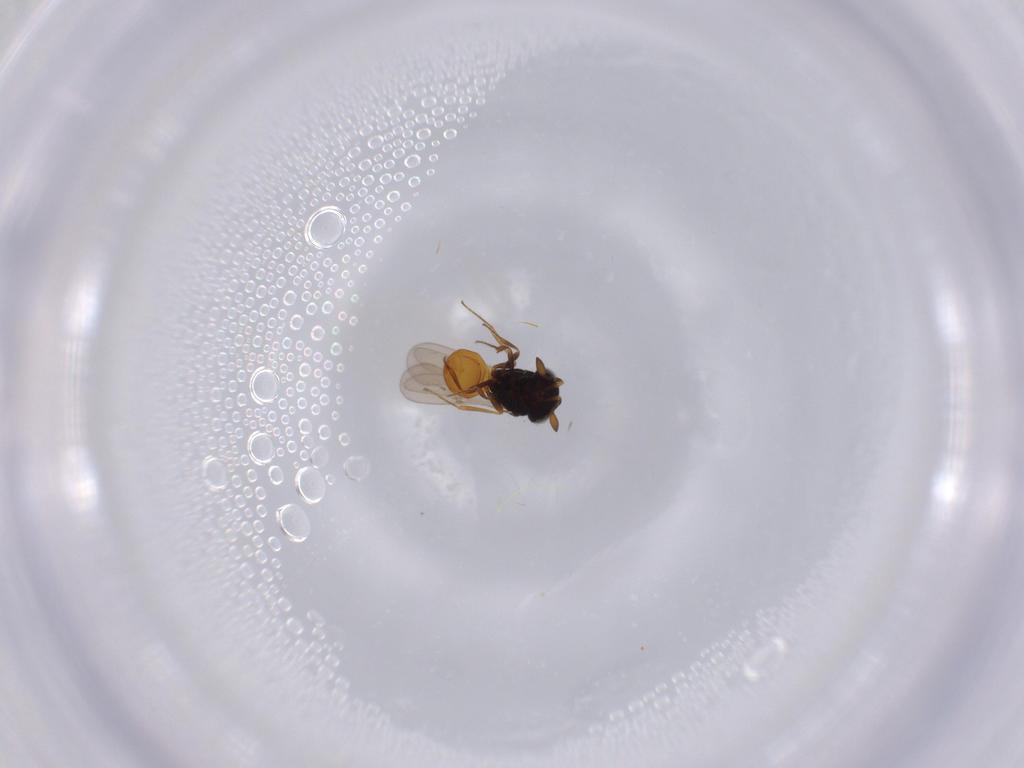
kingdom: Animalia
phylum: Arthropoda
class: Insecta
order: Hymenoptera
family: Scelionidae
